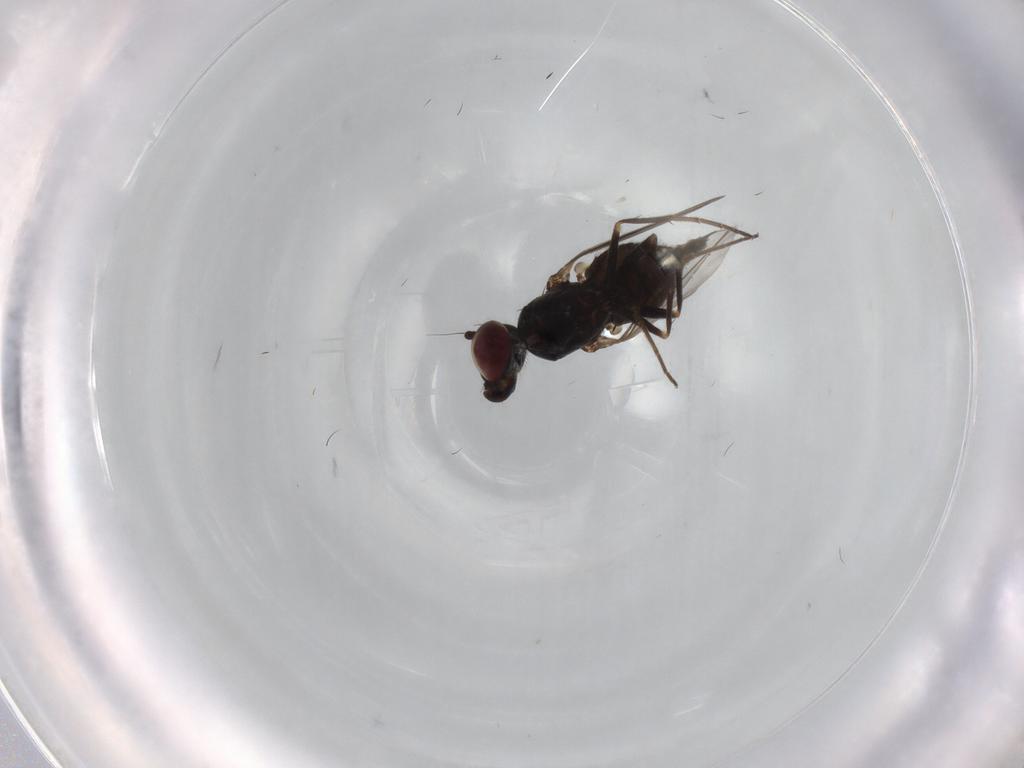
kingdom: Animalia
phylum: Arthropoda
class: Insecta
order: Diptera
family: Dolichopodidae
